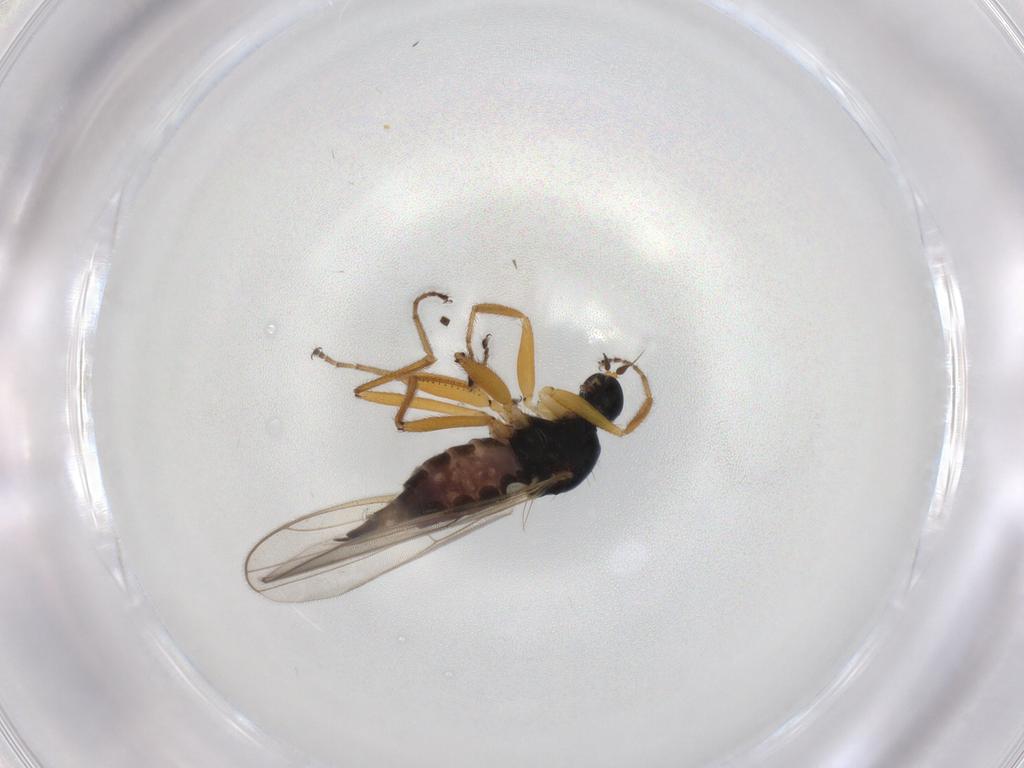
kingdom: Animalia
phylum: Arthropoda
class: Insecta
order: Diptera
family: Hybotidae
